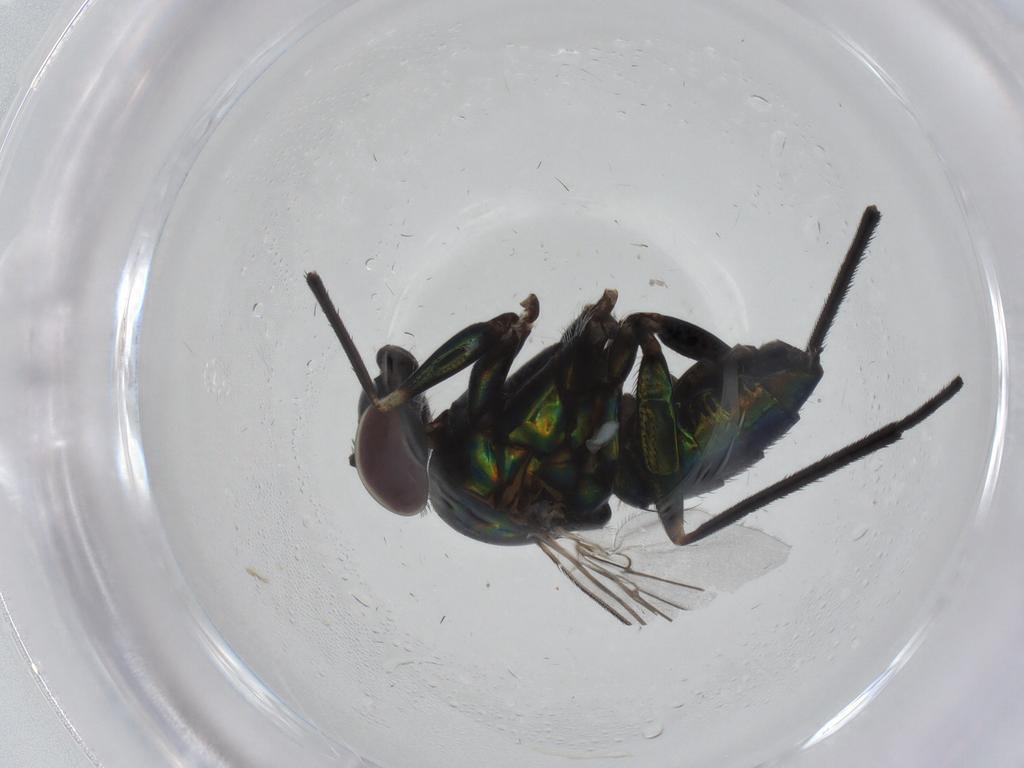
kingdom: Animalia
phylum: Arthropoda
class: Insecta
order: Diptera
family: Dolichopodidae
